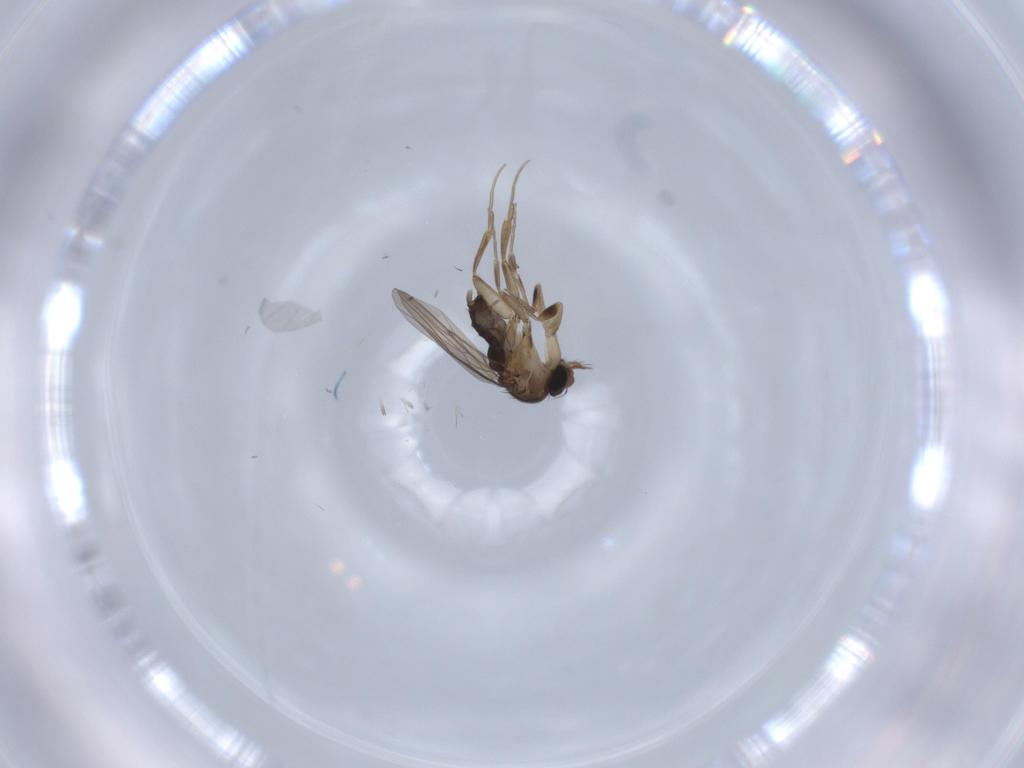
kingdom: Animalia
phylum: Arthropoda
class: Insecta
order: Diptera
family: Phoridae
